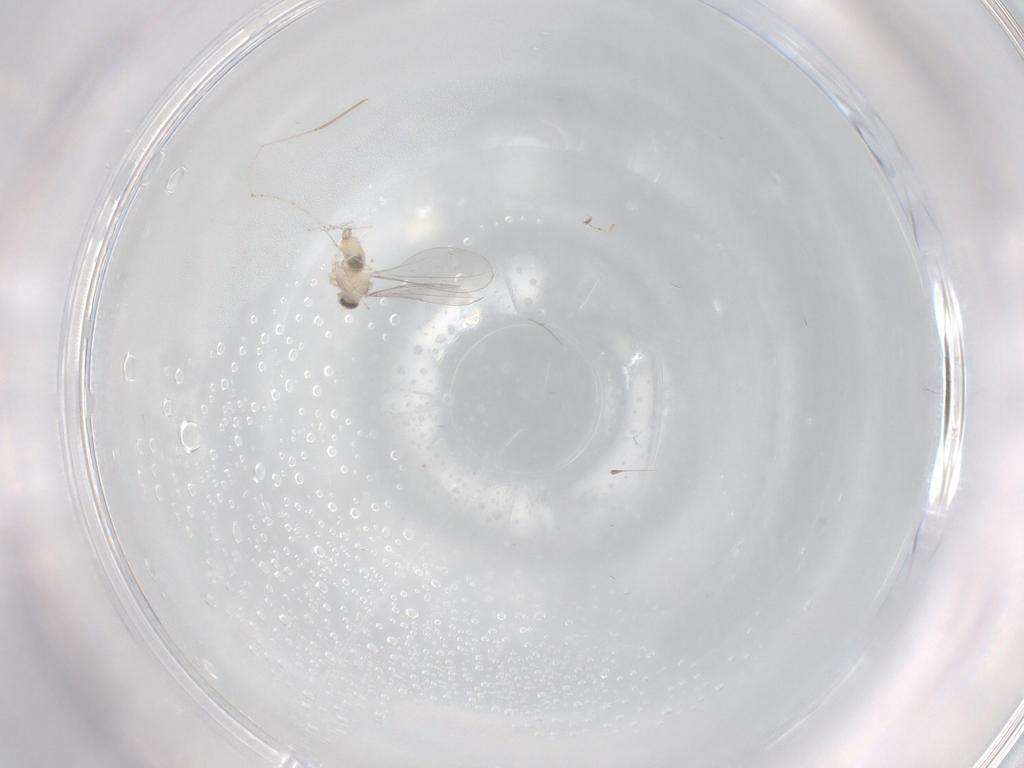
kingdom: Animalia
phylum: Arthropoda
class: Insecta
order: Diptera
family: Cecidomyiidae
